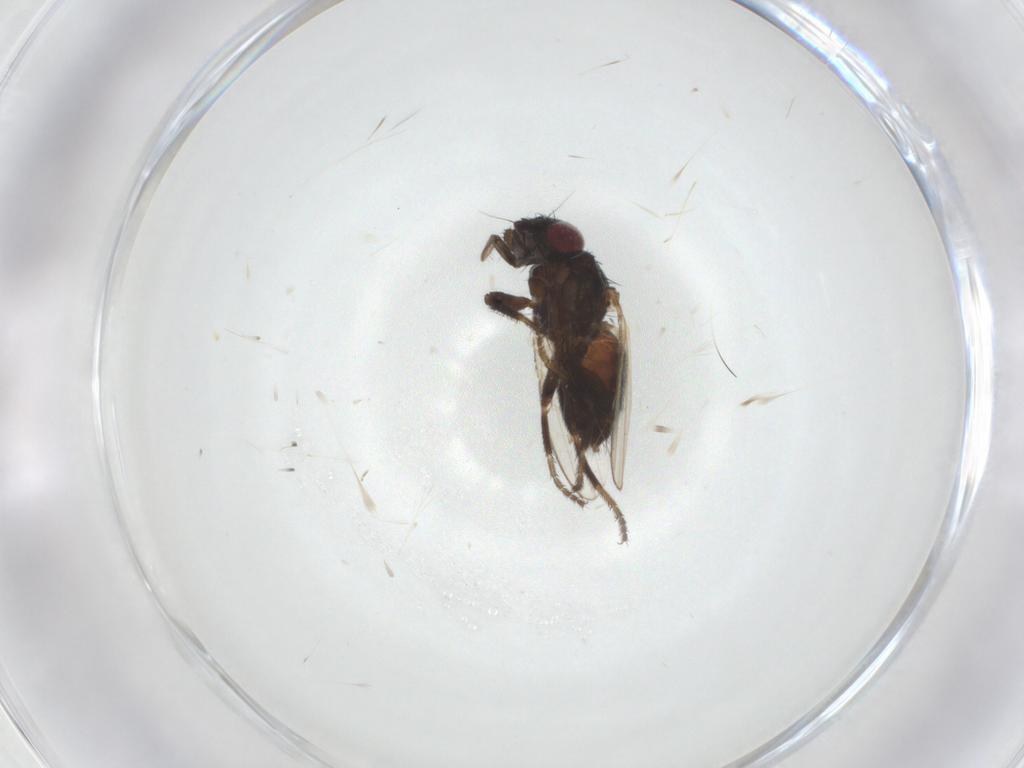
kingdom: Animalia
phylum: Arthropoda
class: Insecta
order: Diptera
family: Milichiidae
